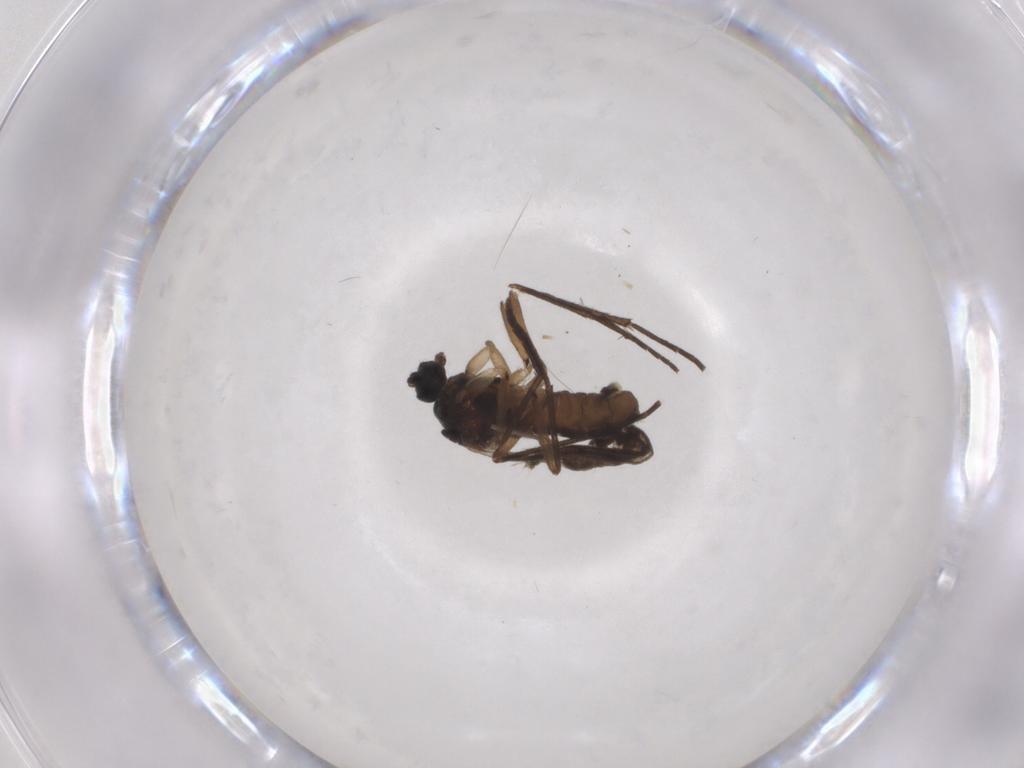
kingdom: Animalia
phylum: Arthropoda
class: Insecta
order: Diptera
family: Sciaridae
